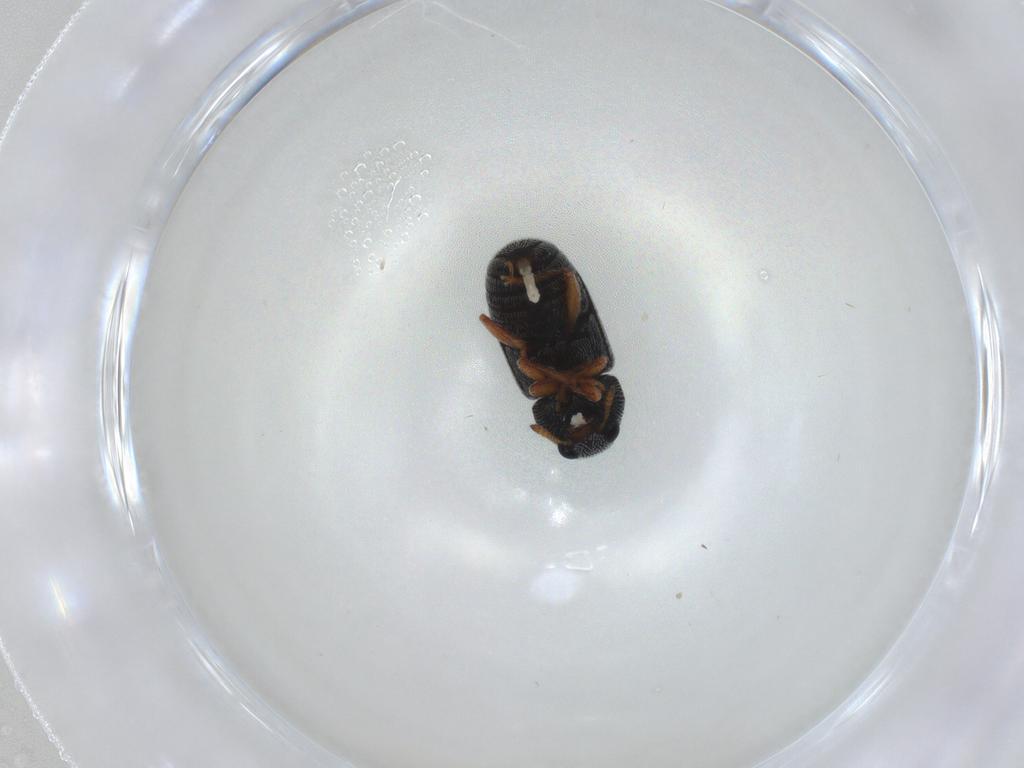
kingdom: Animalia
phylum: Arthropoda
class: Insecta
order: Coleoptera
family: Anthribidae
